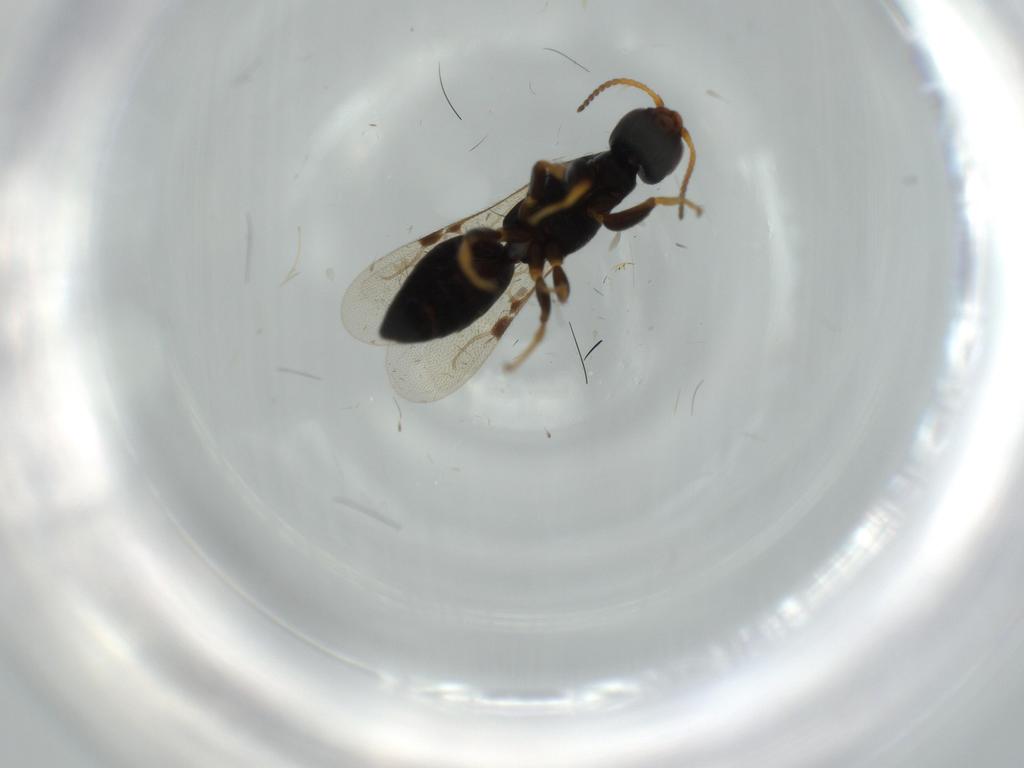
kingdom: Animalia
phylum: Arthropoda
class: Insecta
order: Hymenoptera
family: Bethylidae
